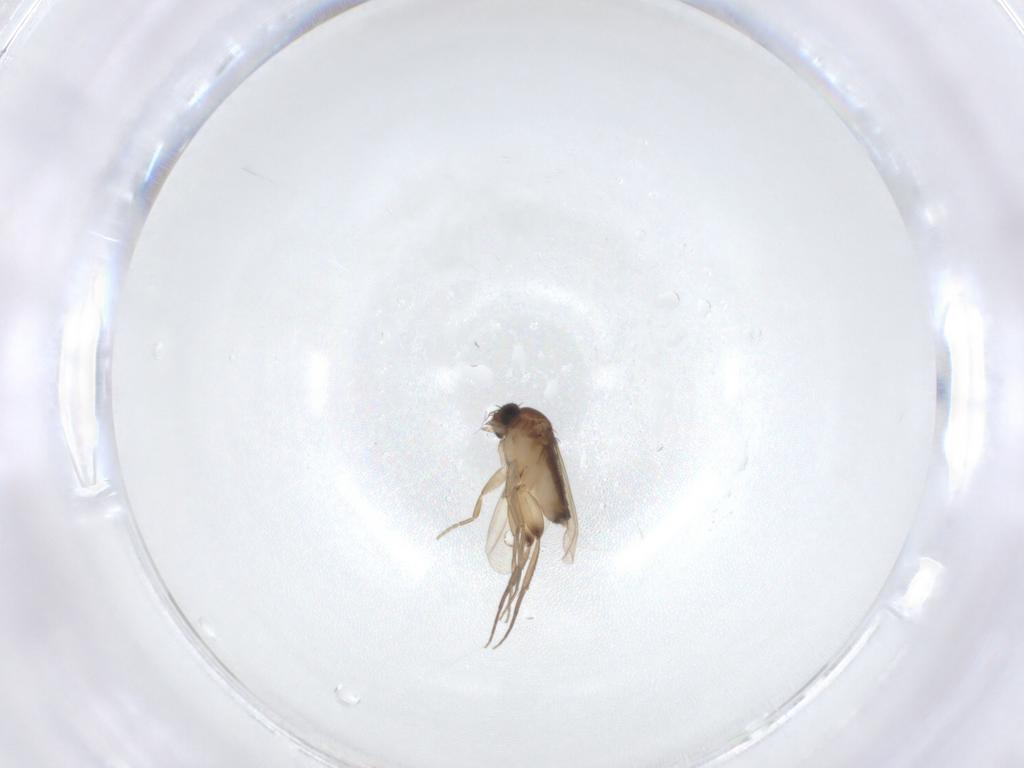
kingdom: Animalia
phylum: Arthropoda
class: Insecta
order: Diptera
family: Phoridae
